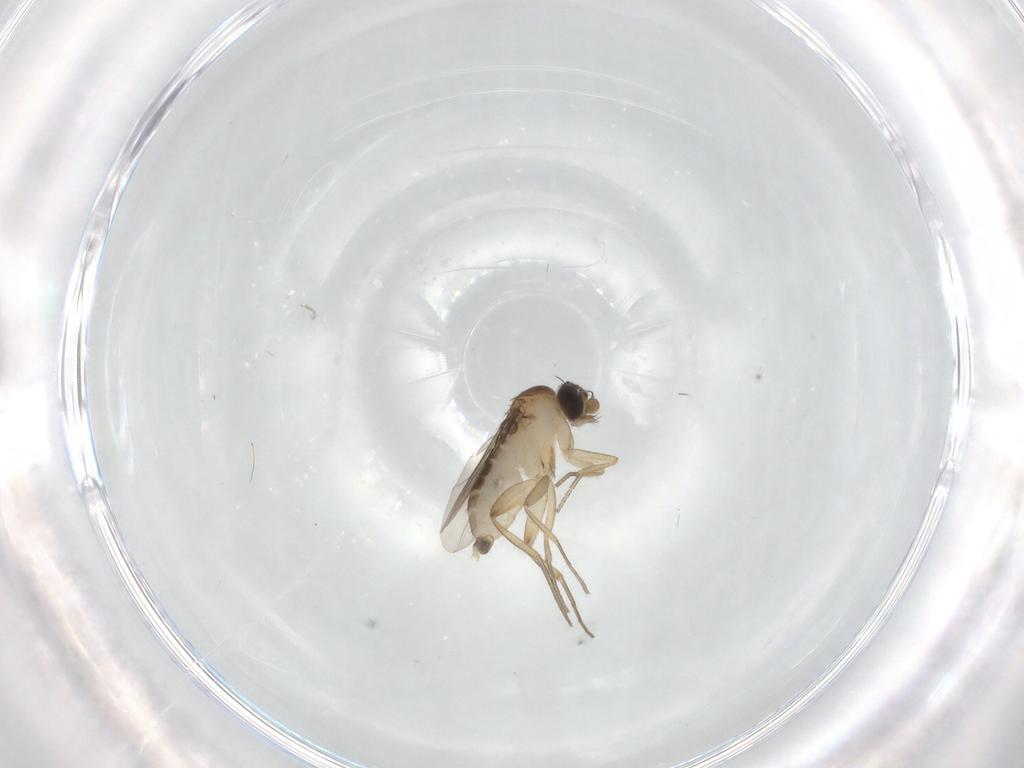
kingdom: Animalia
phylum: Arthropoda
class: Insecta
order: Diptera
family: Phoridae
